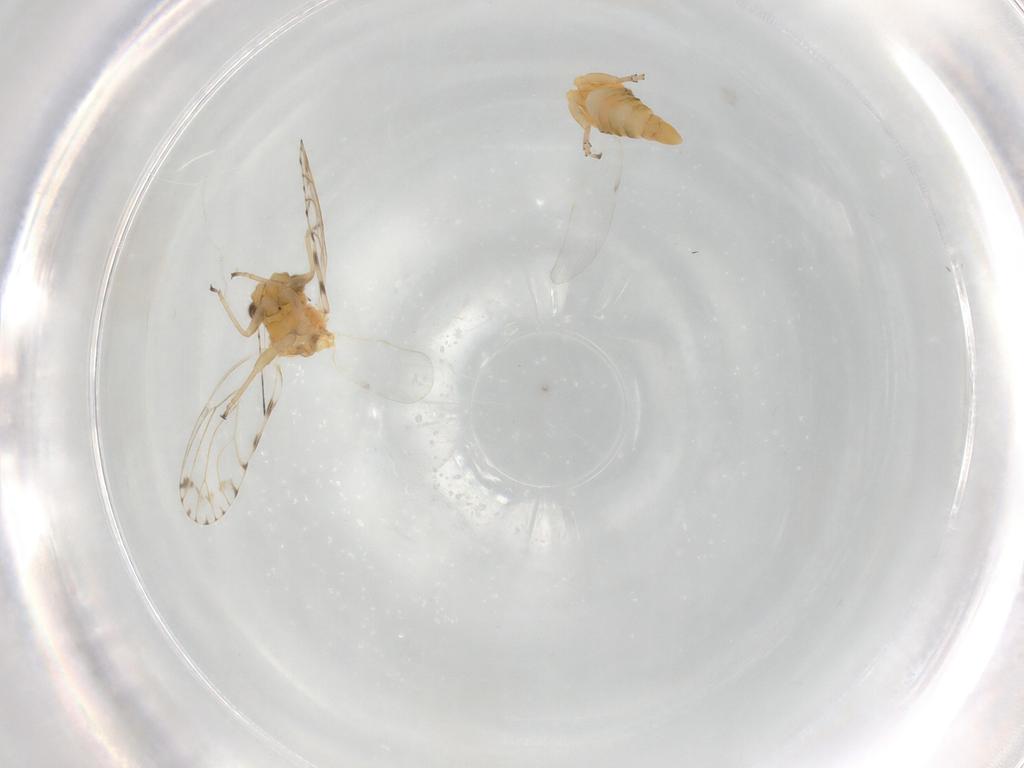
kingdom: Animalia
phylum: Arthropoda
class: Insecta
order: Hemiptera
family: Psyllidae
